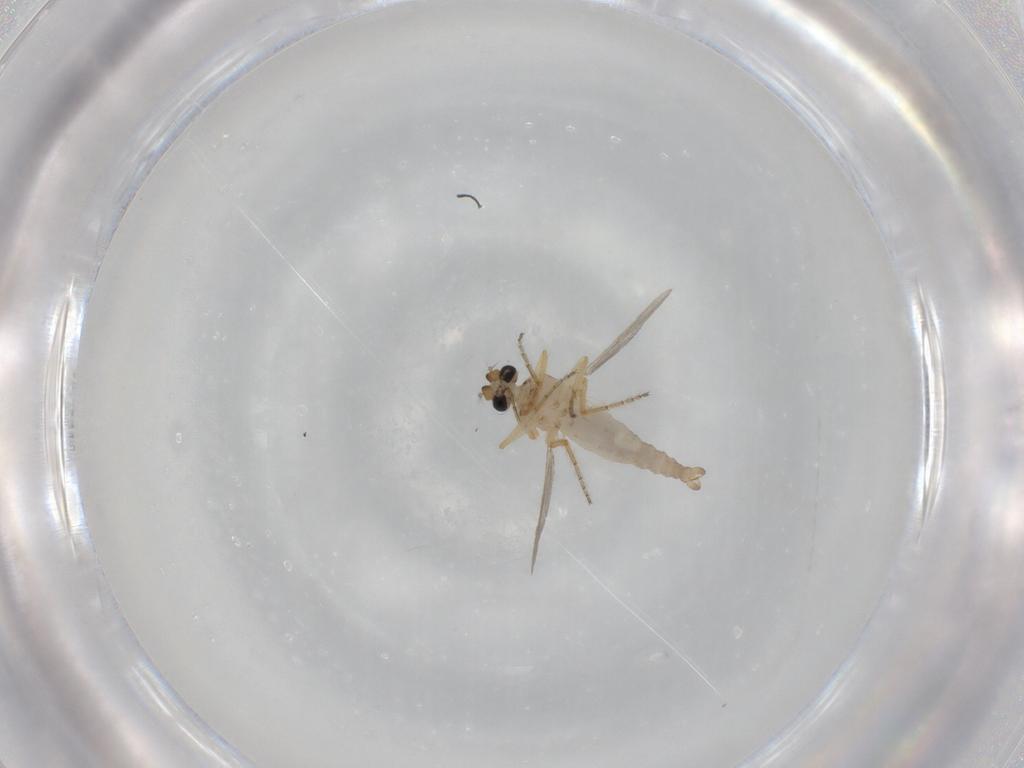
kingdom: Animalia
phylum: Arthropoda
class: Insecta
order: Diptera
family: Ceratopogonidae
